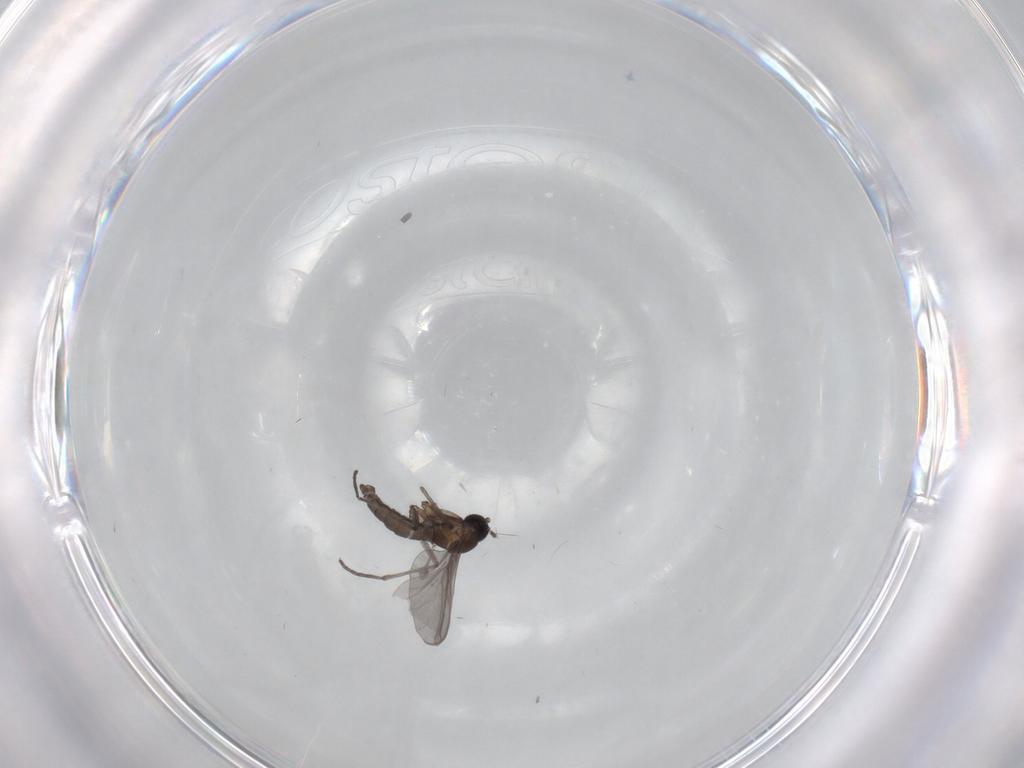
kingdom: Animalia
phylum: Arthropoda
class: Insecta
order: Diptera
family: Sciaridae
